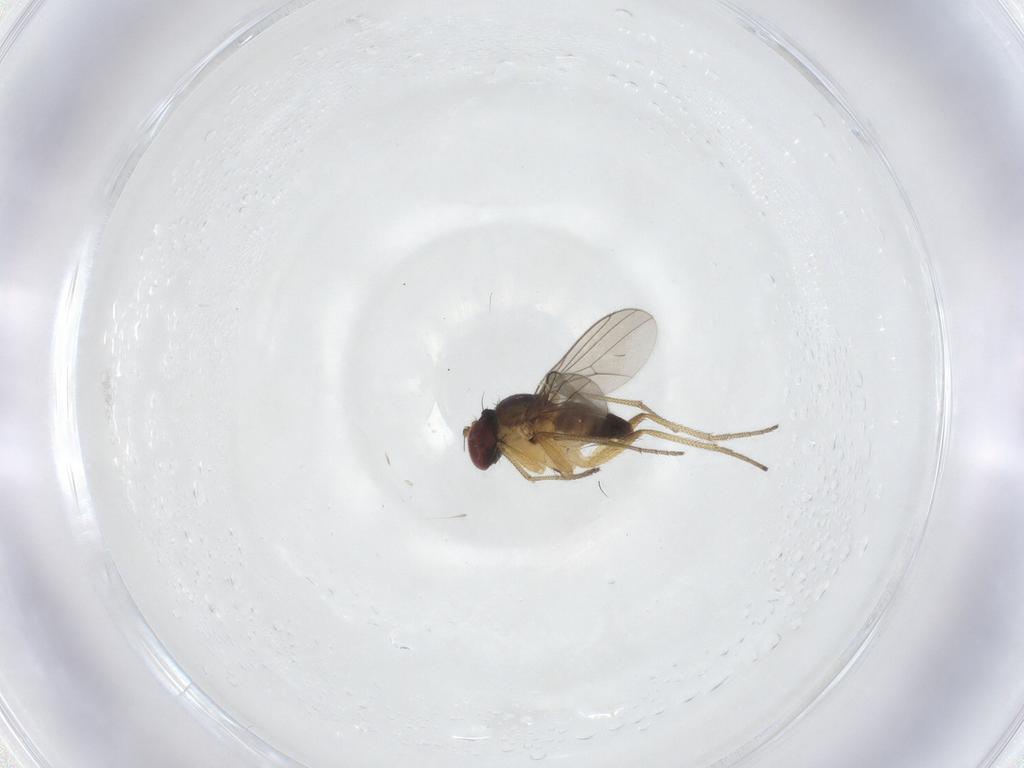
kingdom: Animalia
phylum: Arthropoda
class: Insecta
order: Diptera
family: Dolichopodidae
